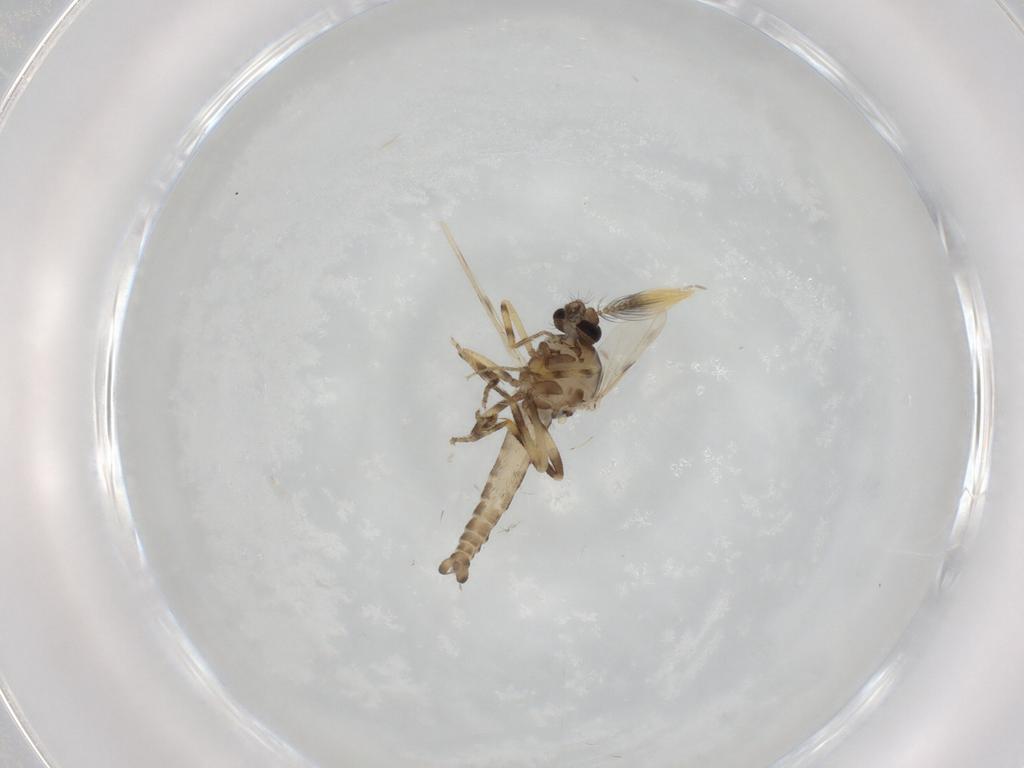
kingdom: Animalia
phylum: Arthropoda
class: Insecta
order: Diptera
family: Ceratopogonidae
